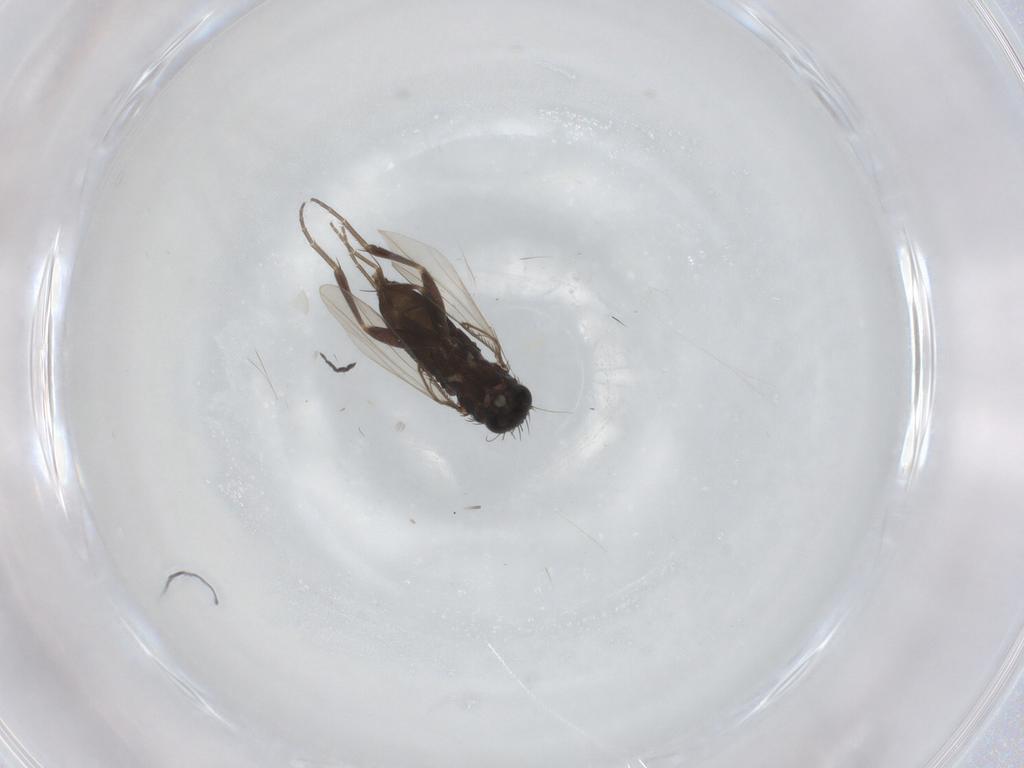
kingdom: Animalia
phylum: Arthropoda
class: Insecta
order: Diptera
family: Phoridae
